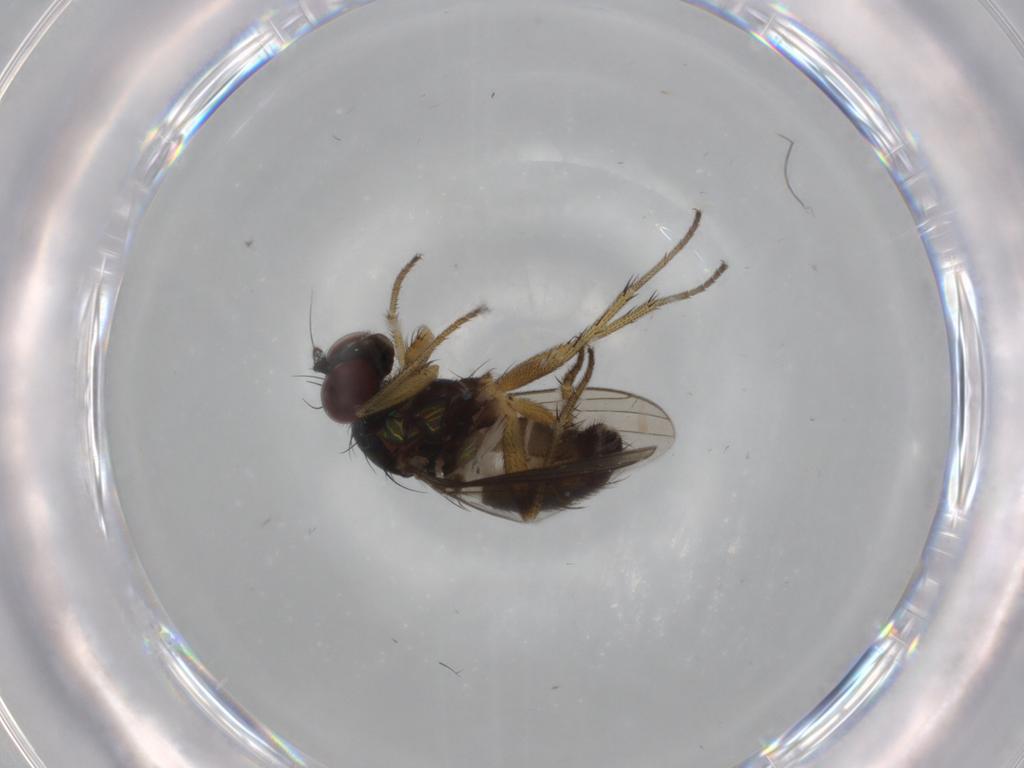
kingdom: Animalia
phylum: Arthropoda
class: Insecta
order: Diptera
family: Dolichopodidae
